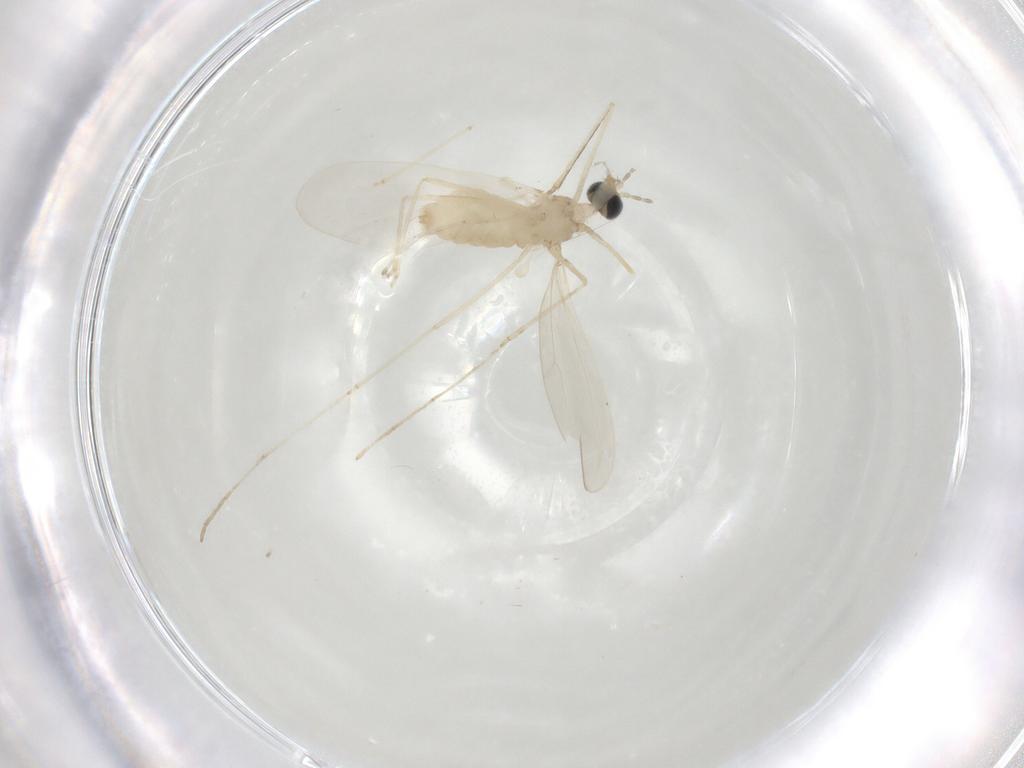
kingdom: Animalia
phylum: Arthropoda
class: Insecta
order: Diptera
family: Cecidomyiidae
